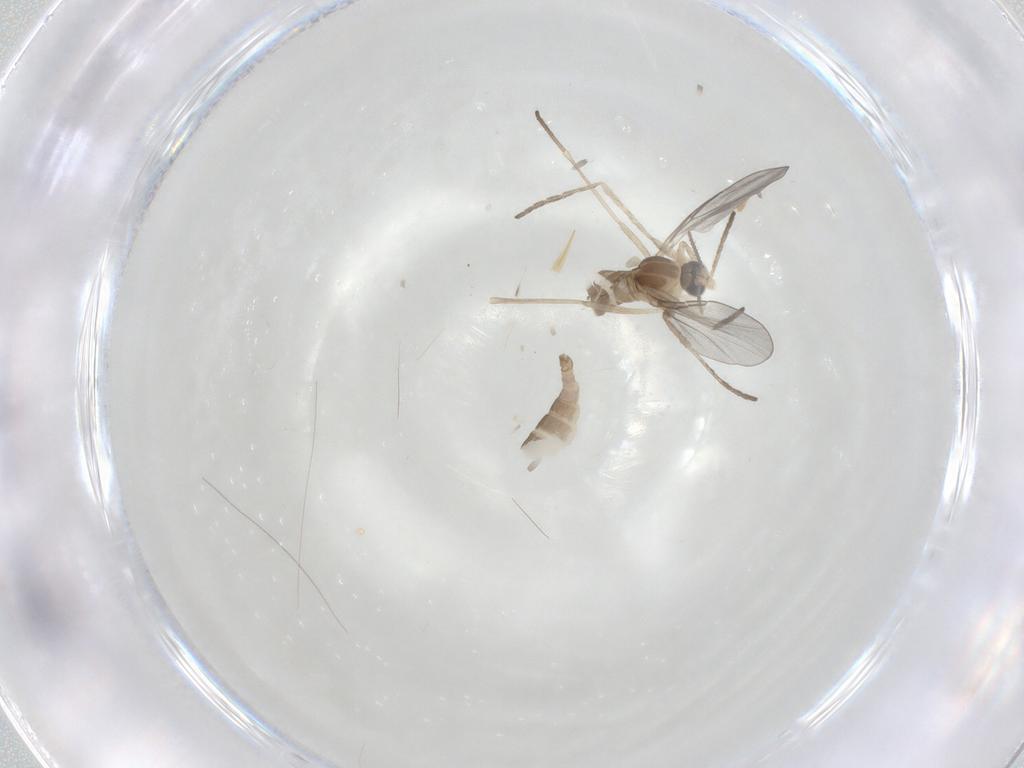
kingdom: Animalia
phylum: Arthropoda
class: Insecta
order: Diptera
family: Cecidomyiidae
